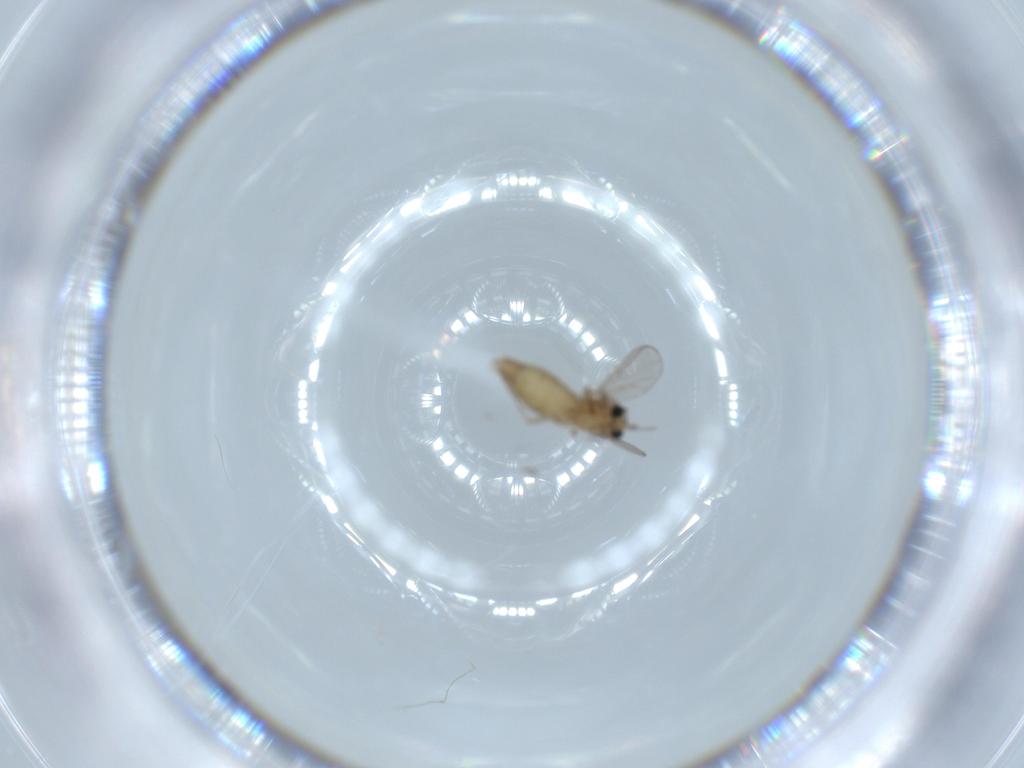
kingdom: Animalia
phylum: Arthropoda
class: Insecta
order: Diptera
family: Chironomidae
